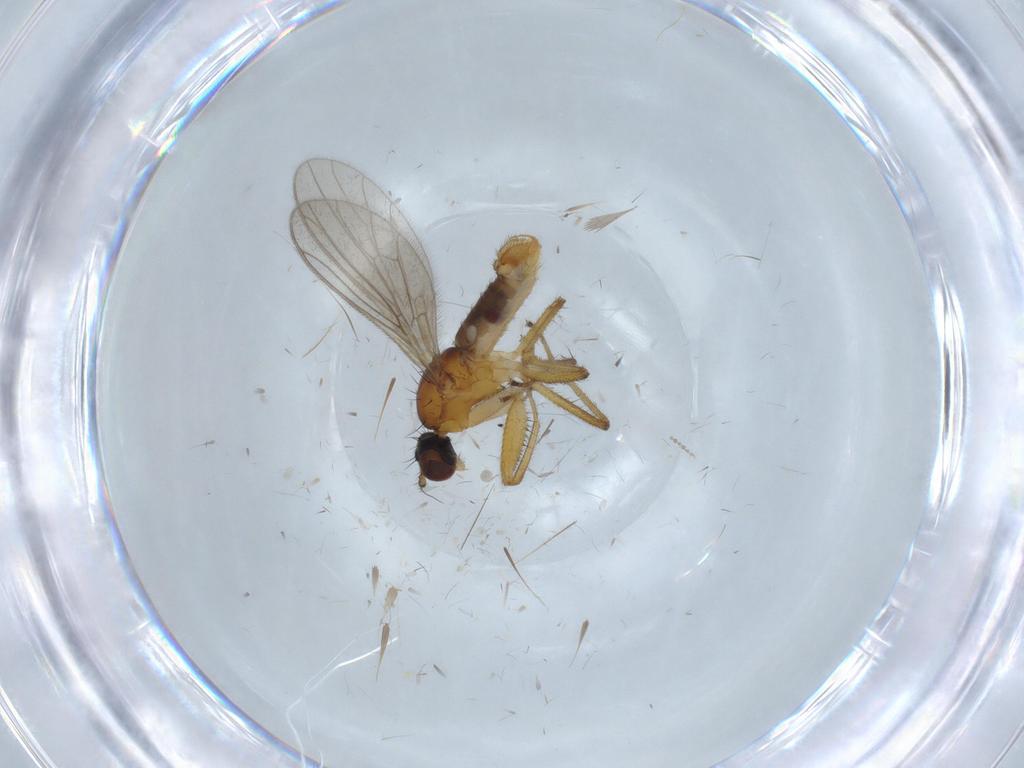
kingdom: Animalia
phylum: Arthropoda
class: Insecta
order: Diptera
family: Empididae
